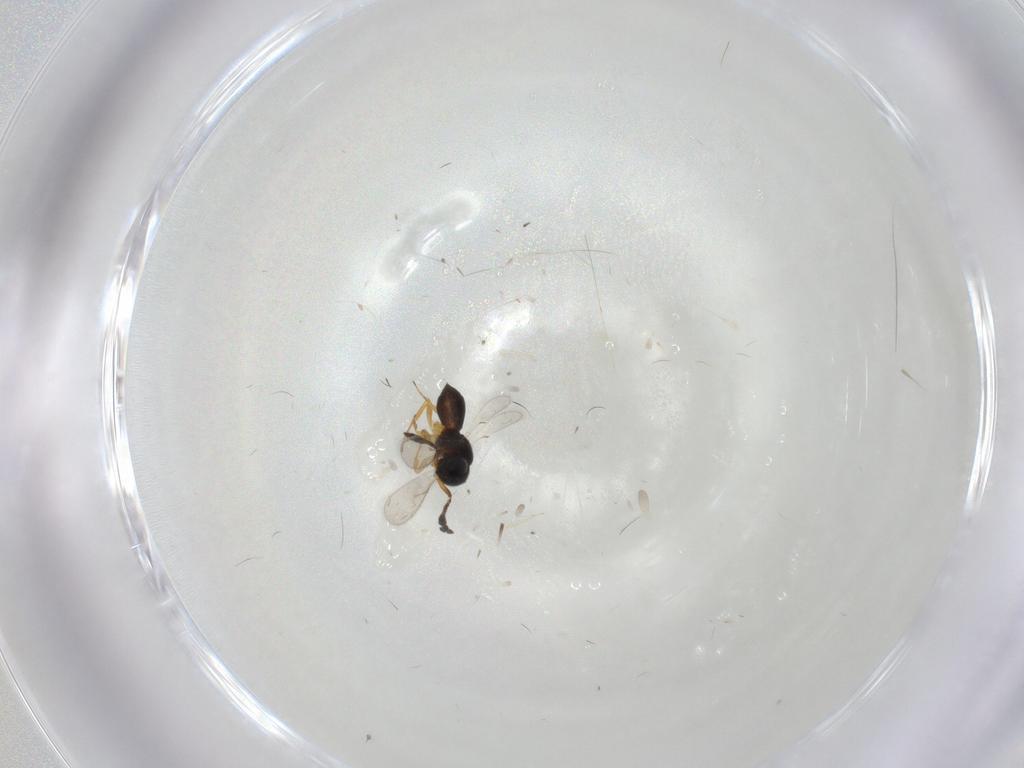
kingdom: Animalia
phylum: Arthropoda
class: Insecta
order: Hymenoptera
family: Scelionidae
